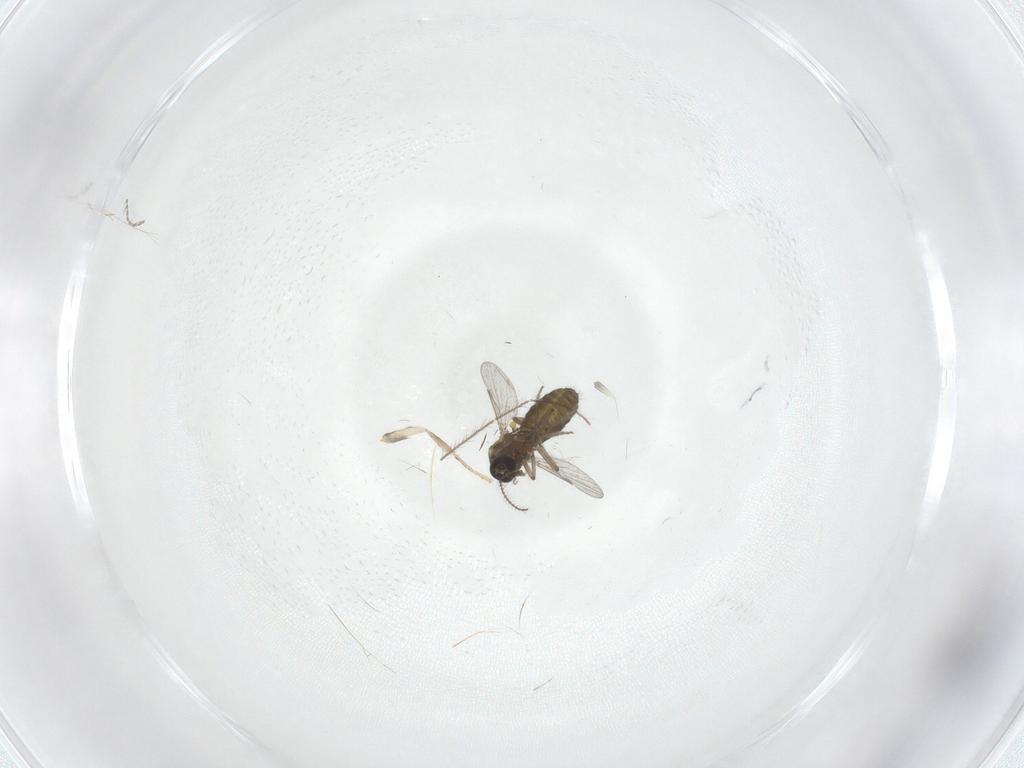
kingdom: Animalia
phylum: Arthropoda
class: Insecta
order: Diptera
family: Ceratopogonidae
